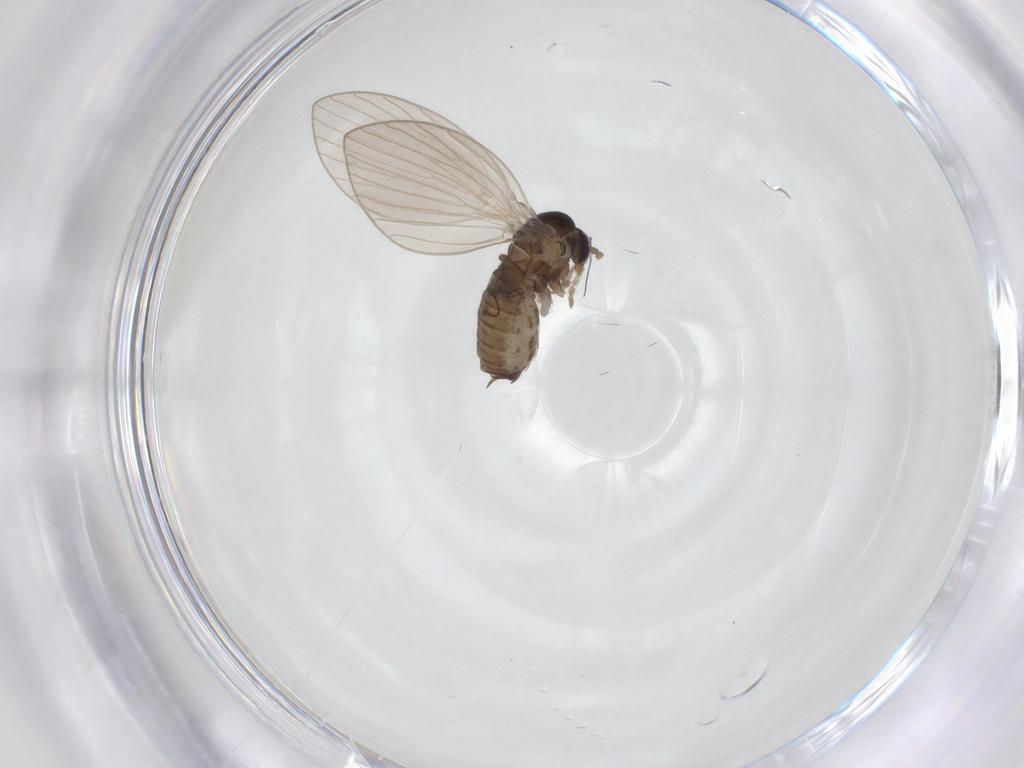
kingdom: Animalia
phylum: Arthropoda
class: Insecta
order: Diptera
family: Psychodidae
